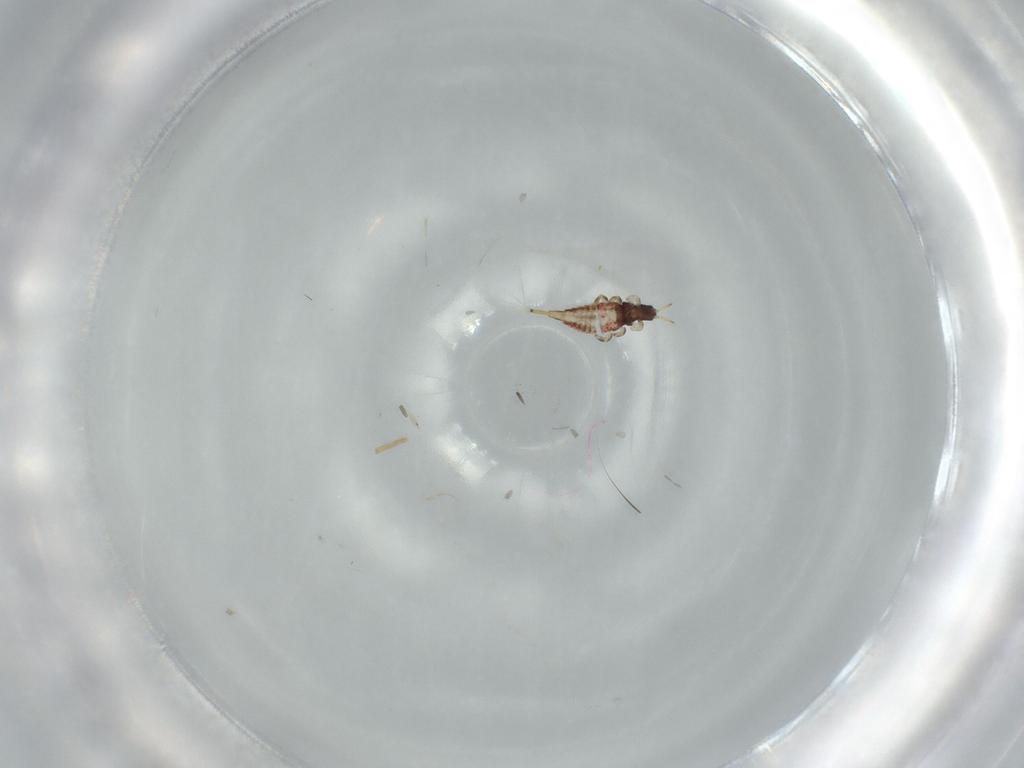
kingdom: Animalia
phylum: Arthropoda
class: Insecta
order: Thysanoptera
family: Phlaeothripidae
